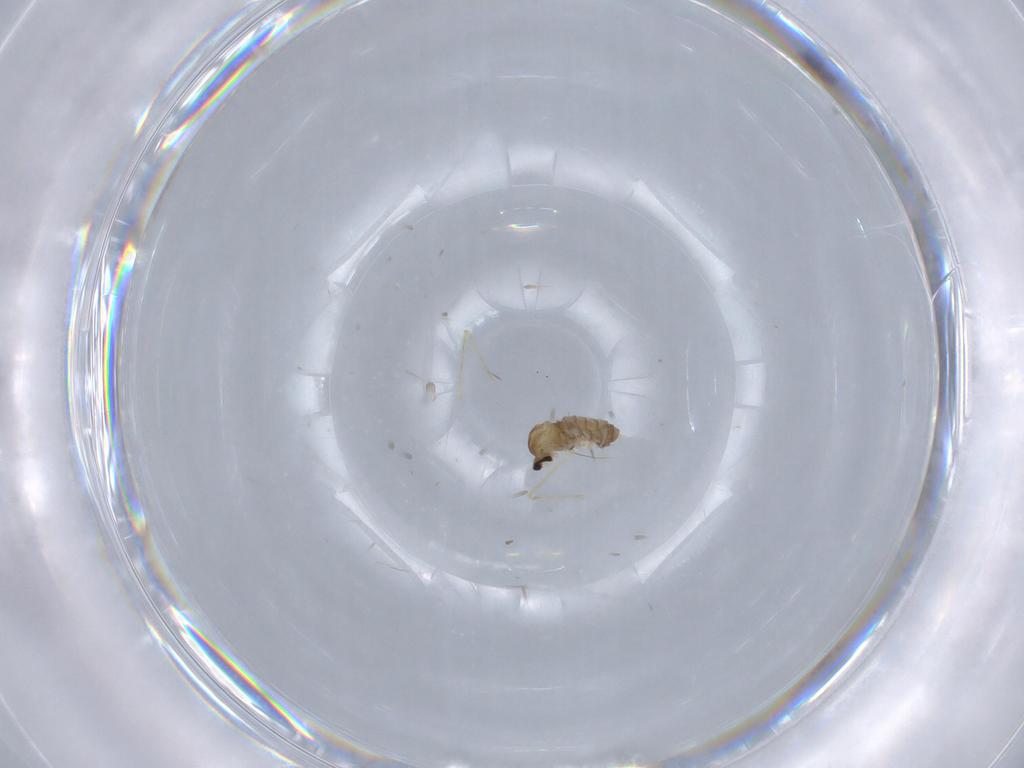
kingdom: Animalia
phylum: Arthropoda
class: Insecta
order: Diptera
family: Cecidomyiidae
